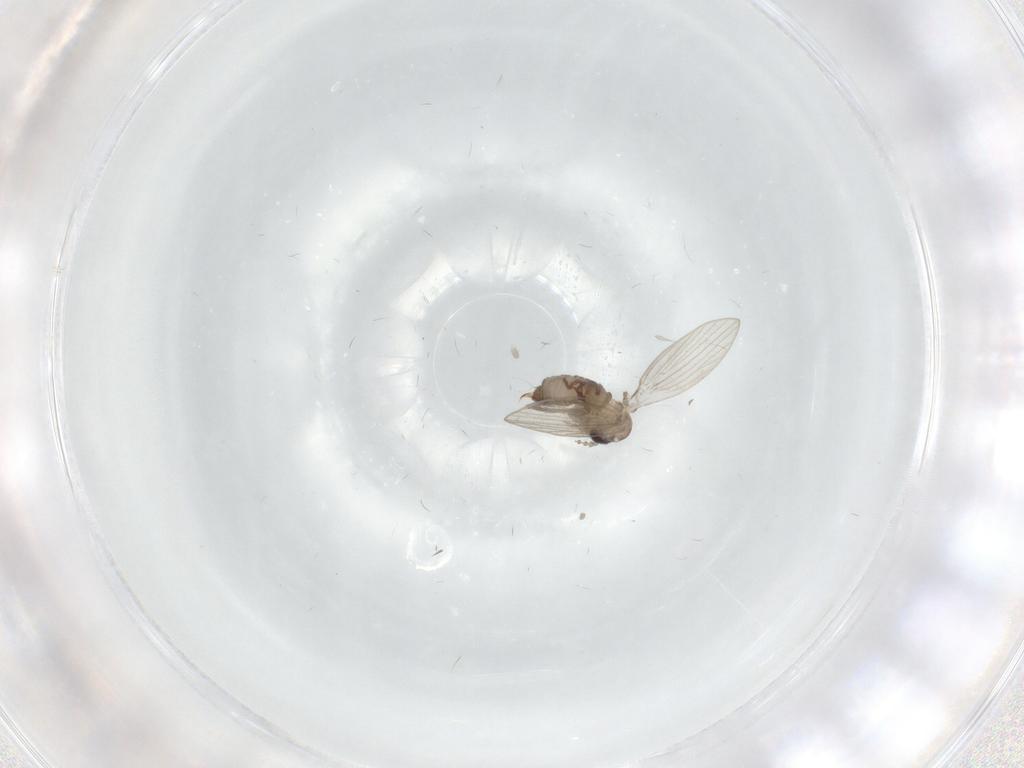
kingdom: Animalia
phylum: Arthropoda
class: Insecta
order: Diptera
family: Psychodidae
